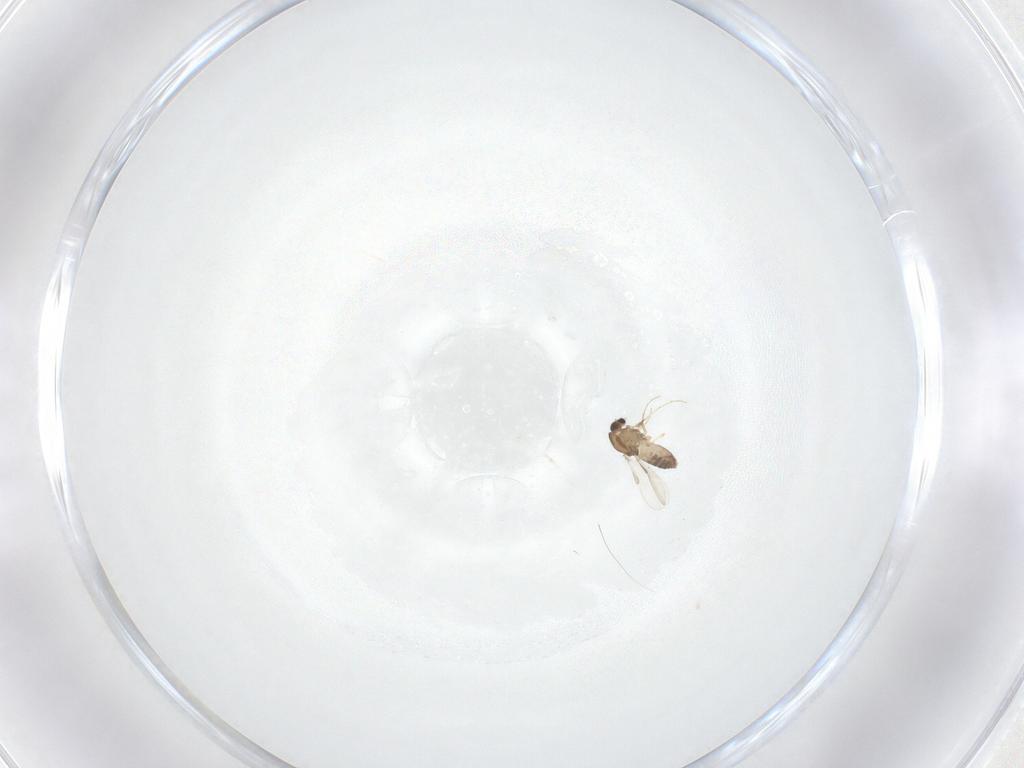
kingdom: Animalia
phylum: Arthropoda
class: Insecta
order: Diptera
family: Chironomidae
